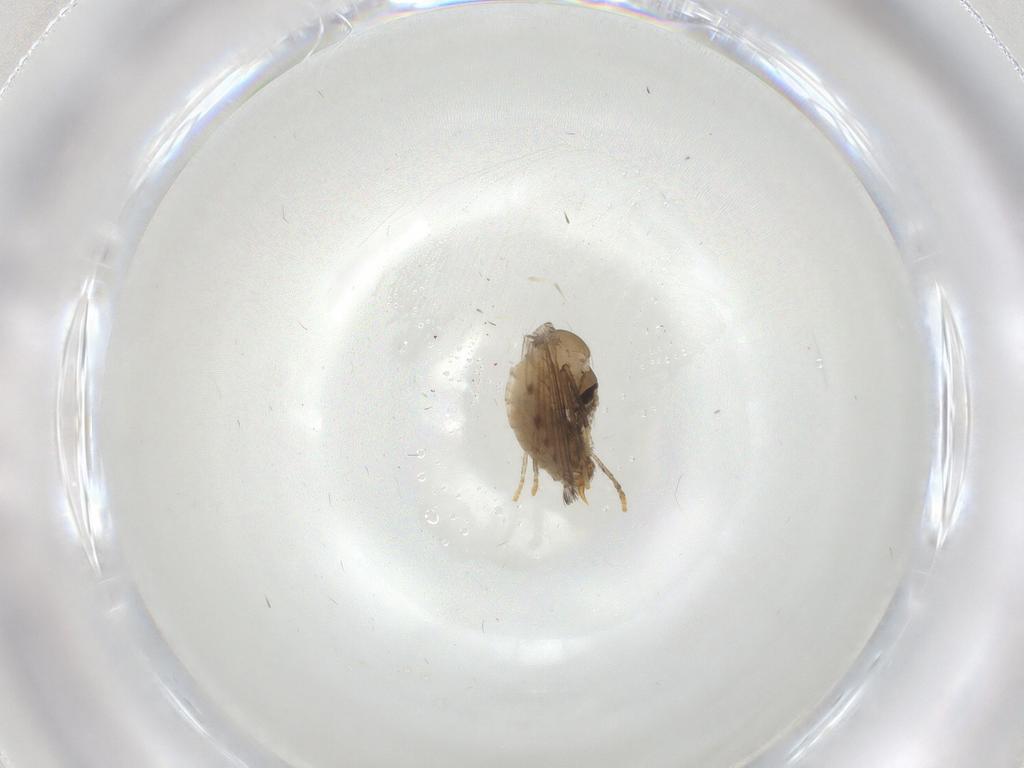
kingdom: Animalia
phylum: Arthropoda
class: Insecta
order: Diptera
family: Psychodidae
